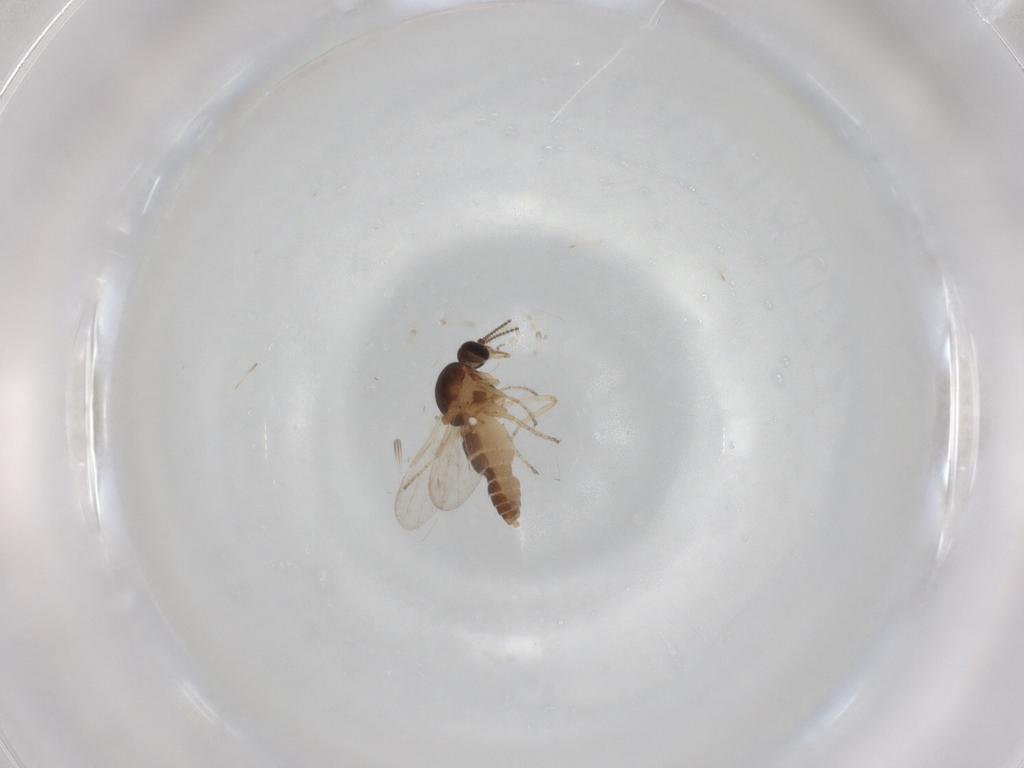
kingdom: Animalia
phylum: Arthropoda
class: Insecta
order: Diptera
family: Ceratopogonidae
